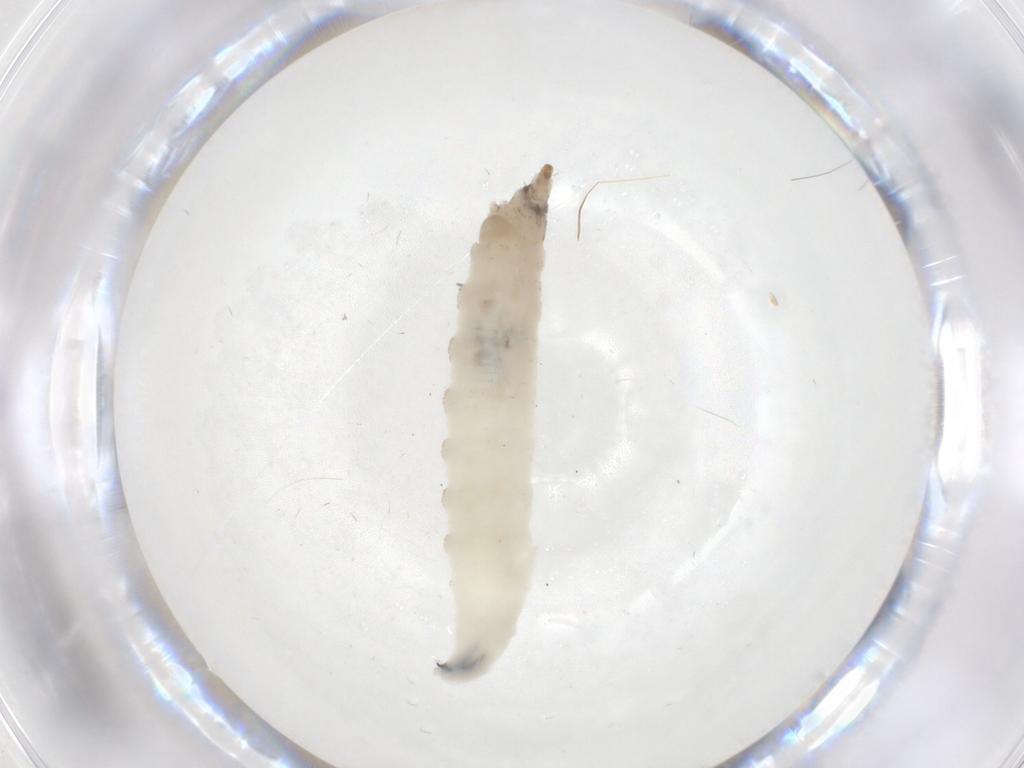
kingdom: Animalia
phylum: Arthropoda
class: Insecta
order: Diptera
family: Drosophilidae
